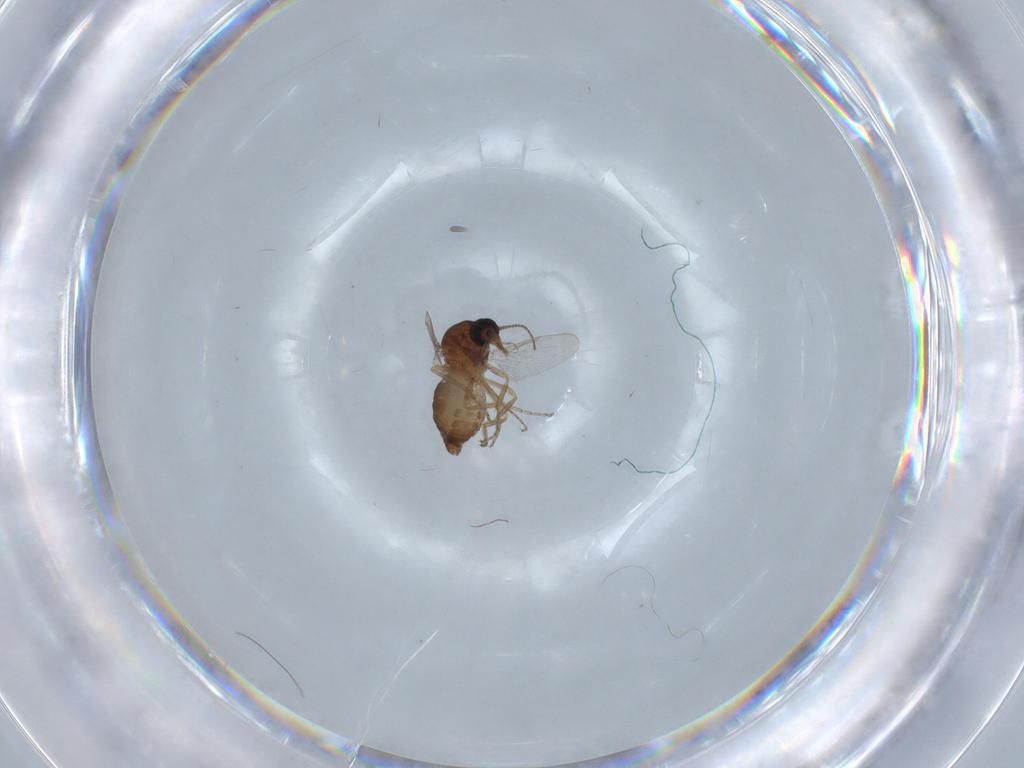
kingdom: Animalia
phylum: Arthropoda
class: Insecta
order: Diptera
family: Ceratopogonidae
